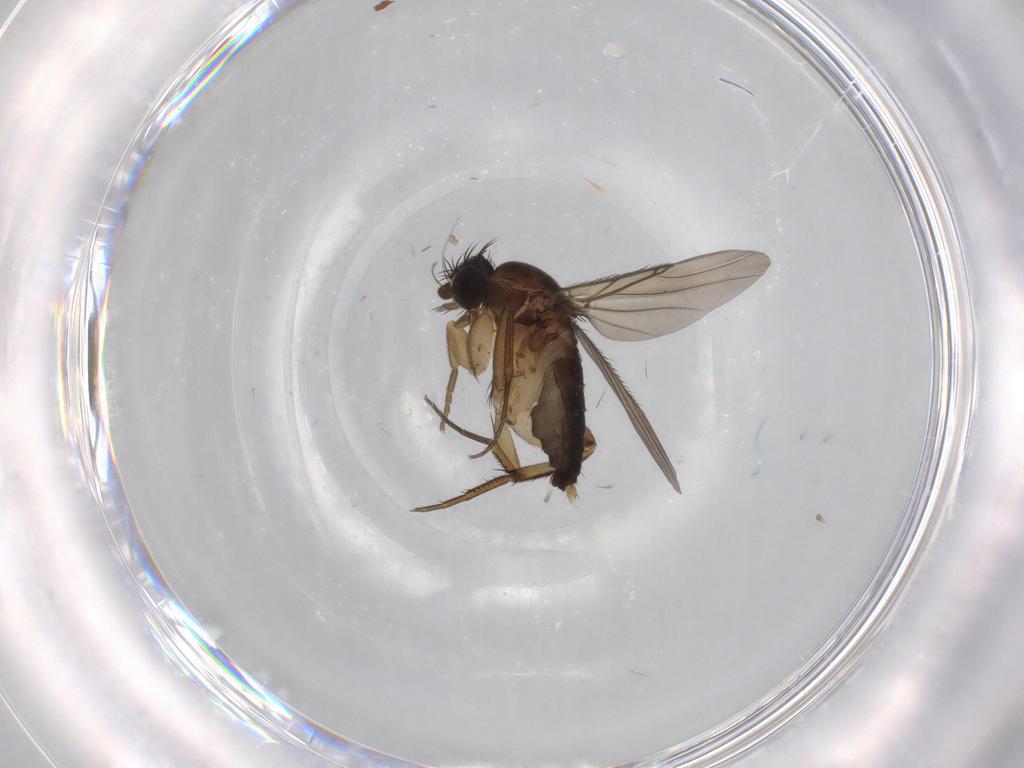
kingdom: Animalia
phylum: Arthropoda
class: Insecta
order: Diptera
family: Phoridae
